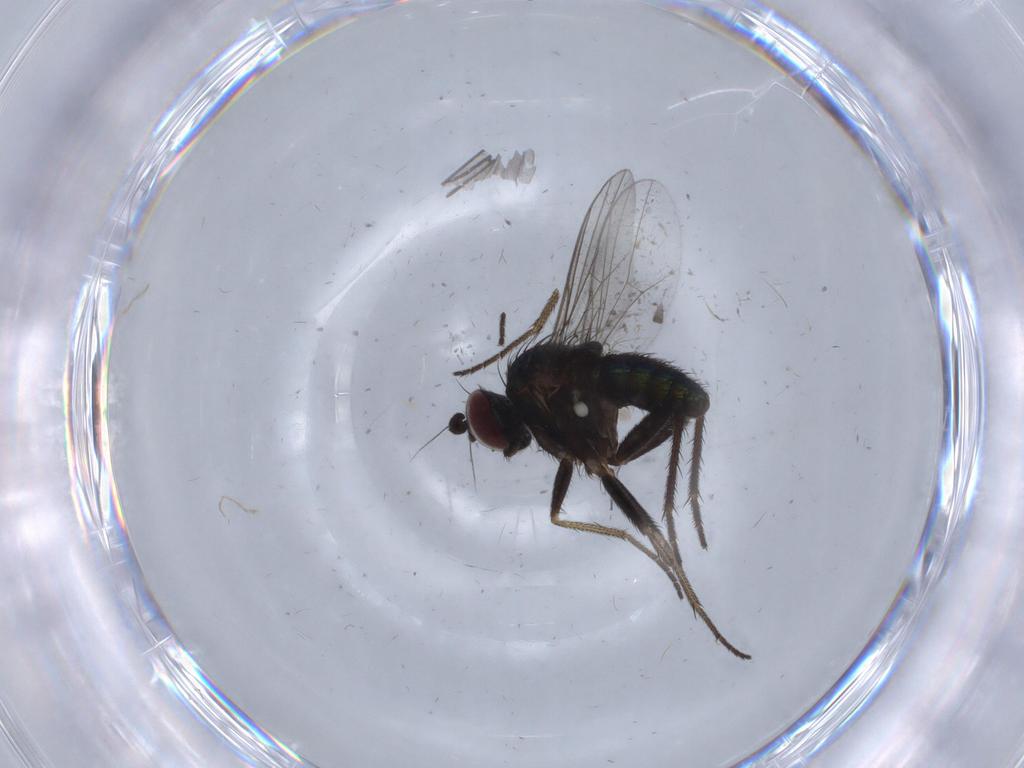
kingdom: Animalia
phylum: Arthropoda
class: Insecta
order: Diptera
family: Dolichopodidae
